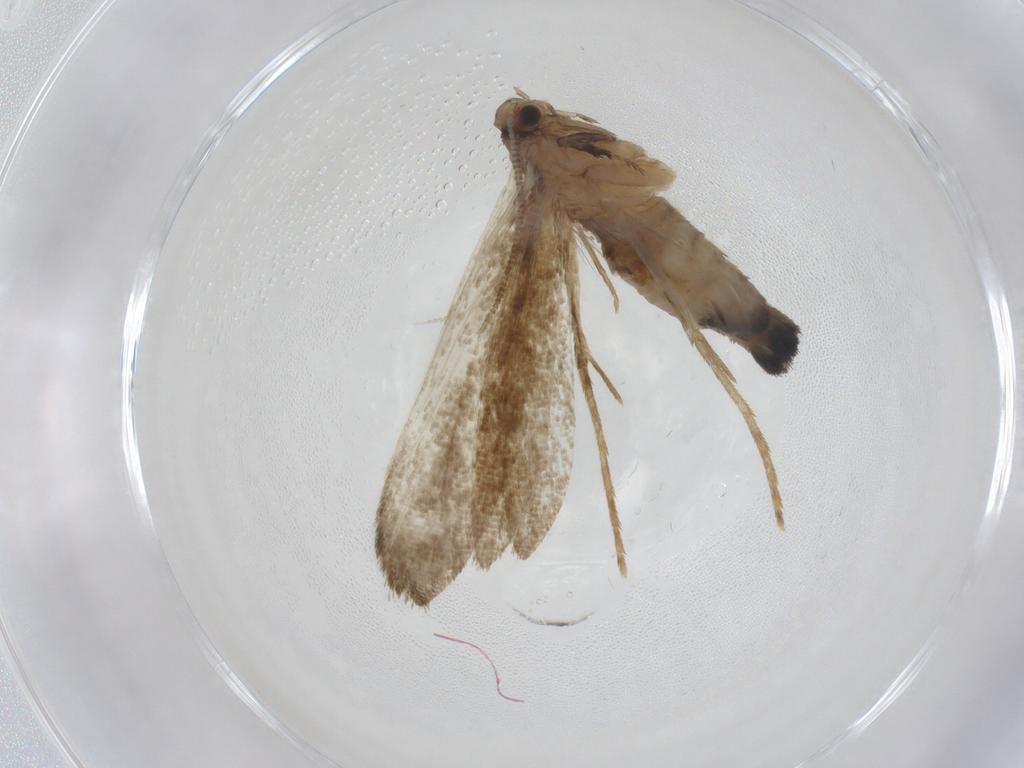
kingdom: Animalia
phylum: Arthropoda
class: Insecta
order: Lepidoptera
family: Tineidae
